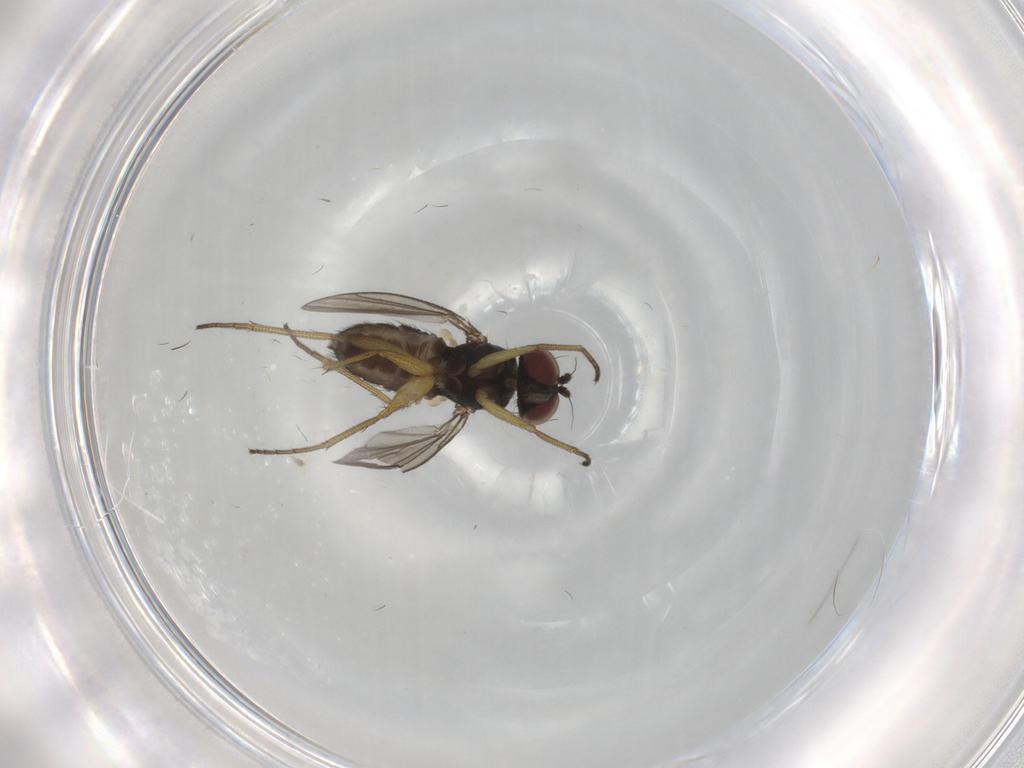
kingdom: Animalia
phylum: Arthropoda
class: Insecta
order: Diptera
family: Dolichopodidae
